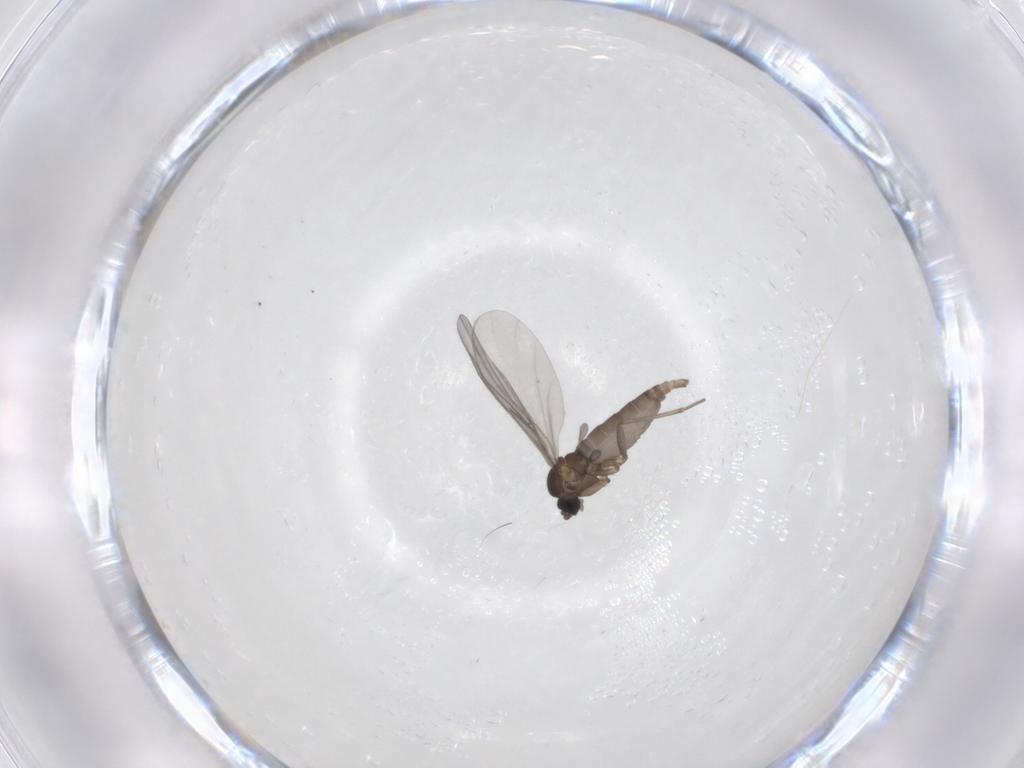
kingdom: Animalia
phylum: Arthropoda
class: Insecta
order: Diptera
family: Sciaridae
